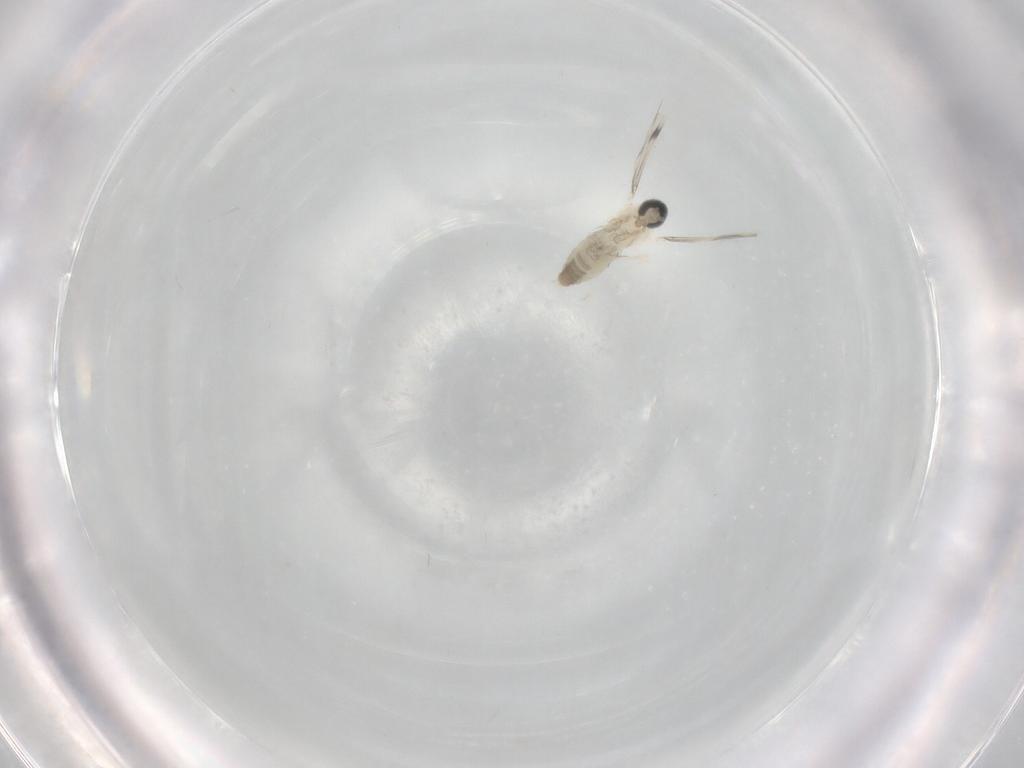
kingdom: Animalia
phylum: Arthropoda
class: Insecta
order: Diptera
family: Cecidomyiidae
